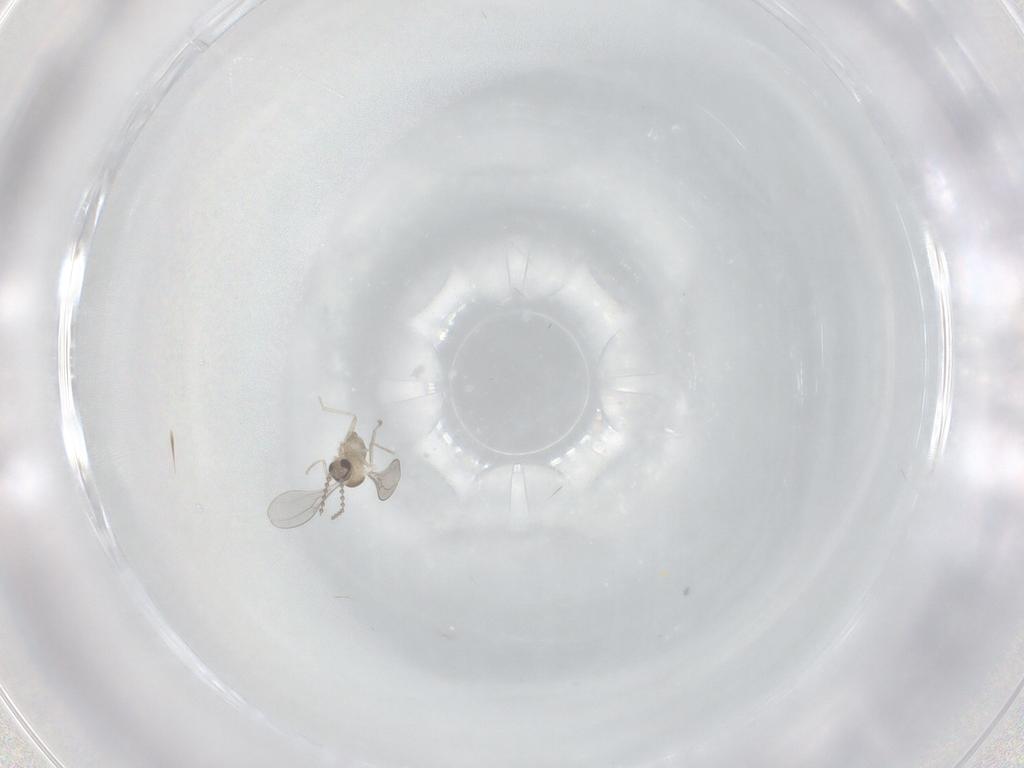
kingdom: Animalia
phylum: Arthropoda
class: Insecta
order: Diptera
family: Cecidomyiidae
